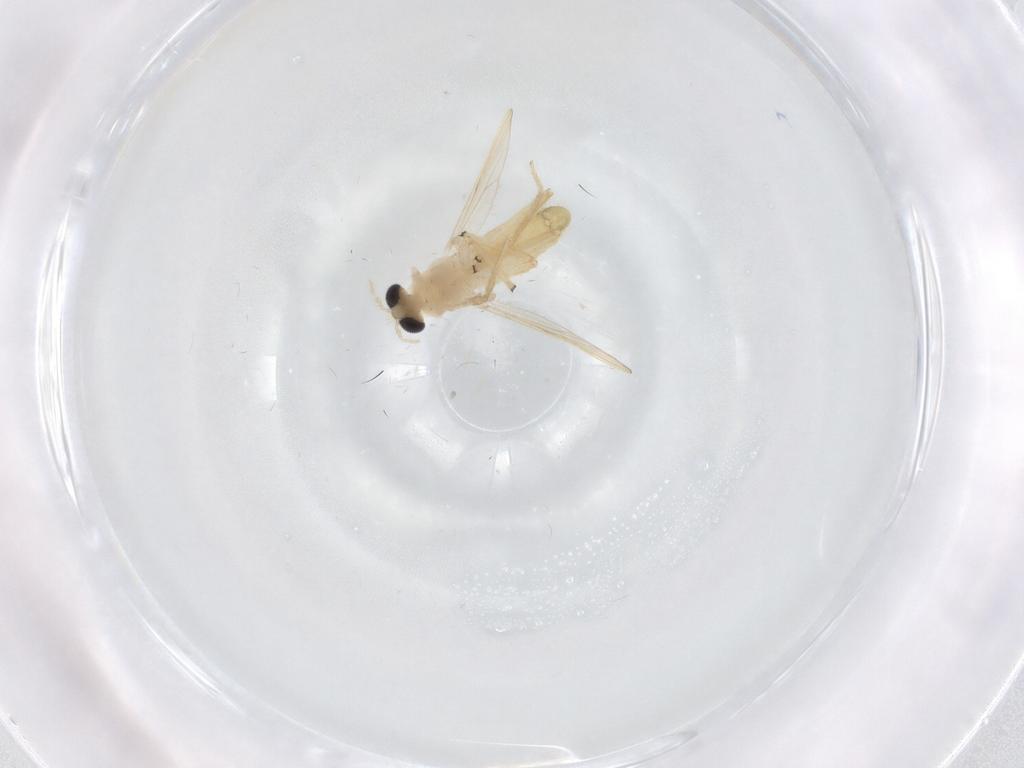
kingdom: Animalia
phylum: Arthropoda
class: Insecta
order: Diptera
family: Chironomidae
